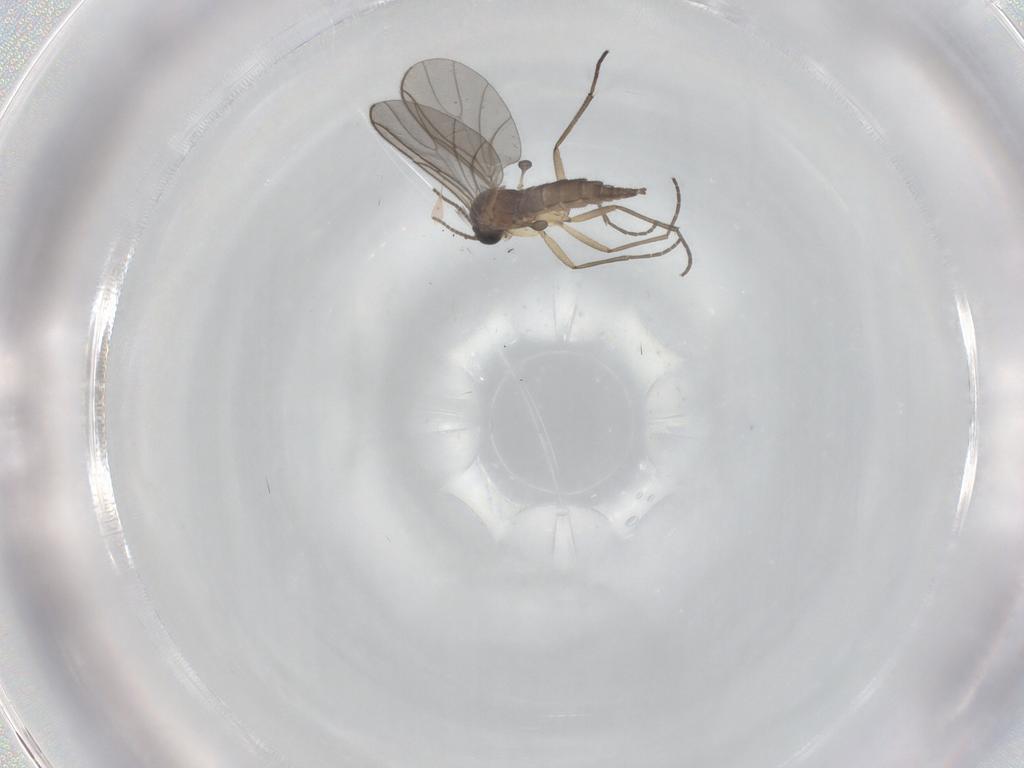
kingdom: Animalia
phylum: Arthropoda
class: Insecta
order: Diptera
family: Sciaridae
